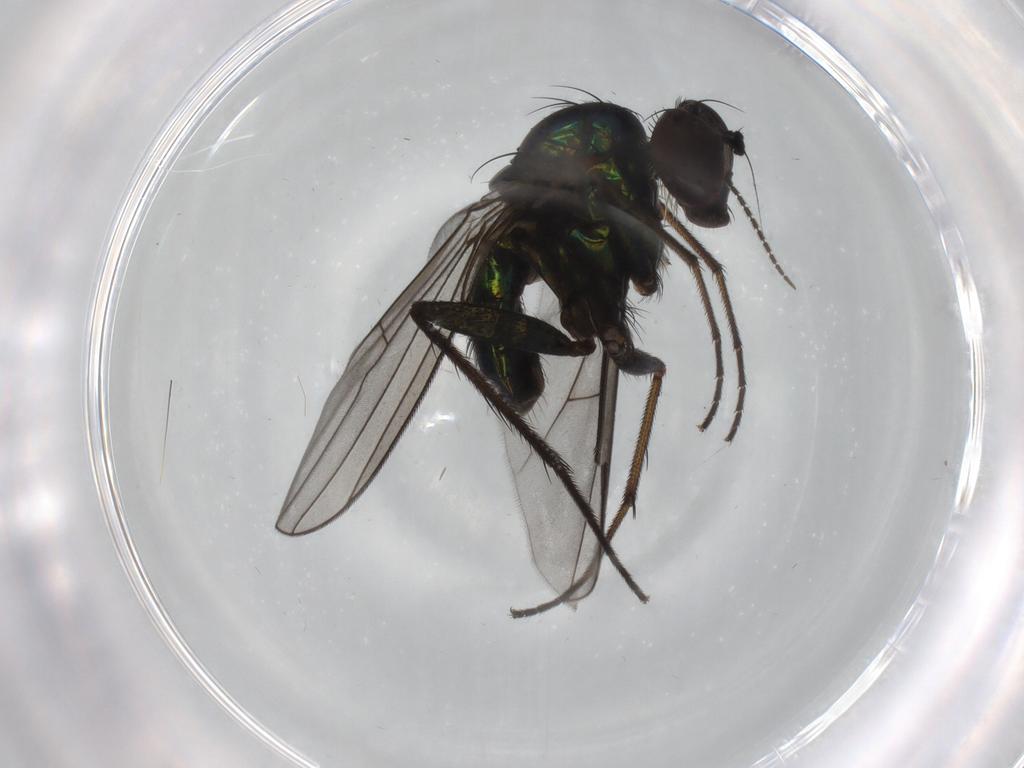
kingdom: Animalia
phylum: Arthropoda
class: Insecta
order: Diptera
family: Dolichopodidae
